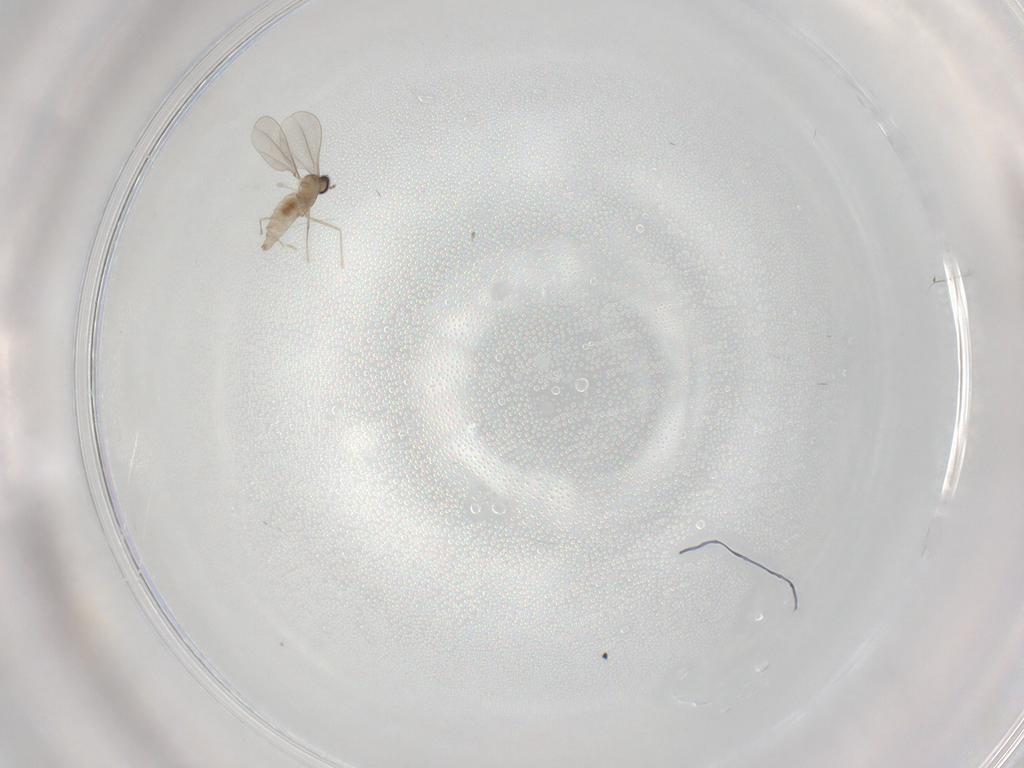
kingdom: Animalia
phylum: Arthropoda
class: Insecta
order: Diptera
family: Cecidomyiidae
